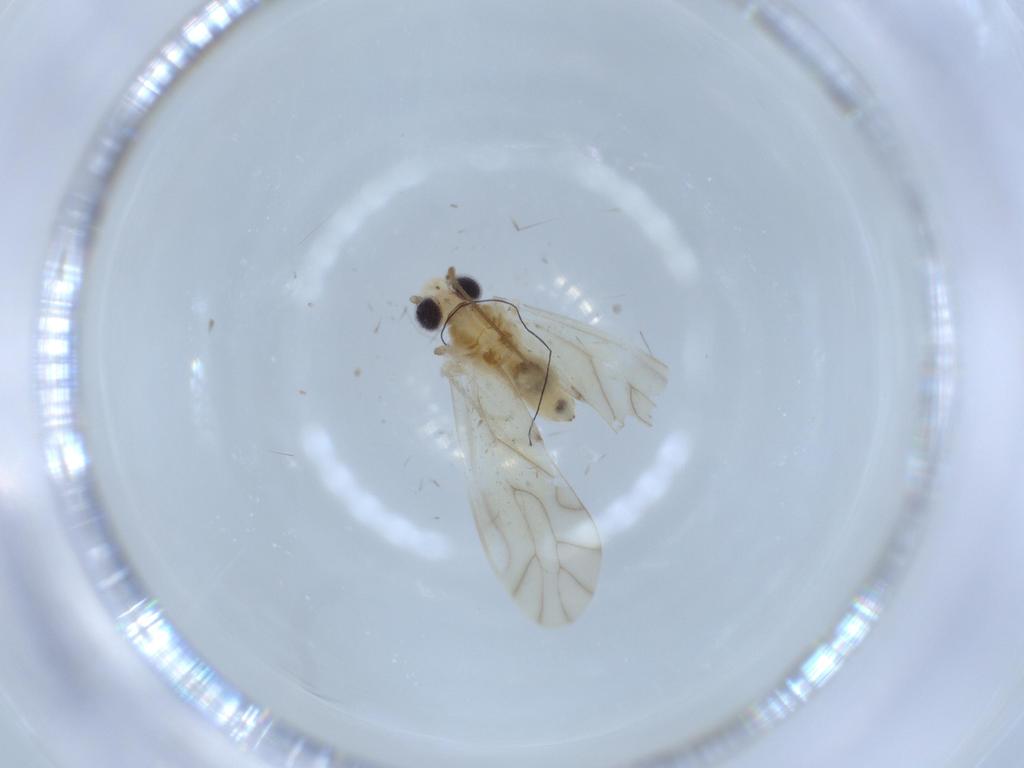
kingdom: Animalia
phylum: Arthropoda
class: Insecta
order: Psocodea
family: Caeciliusidae
